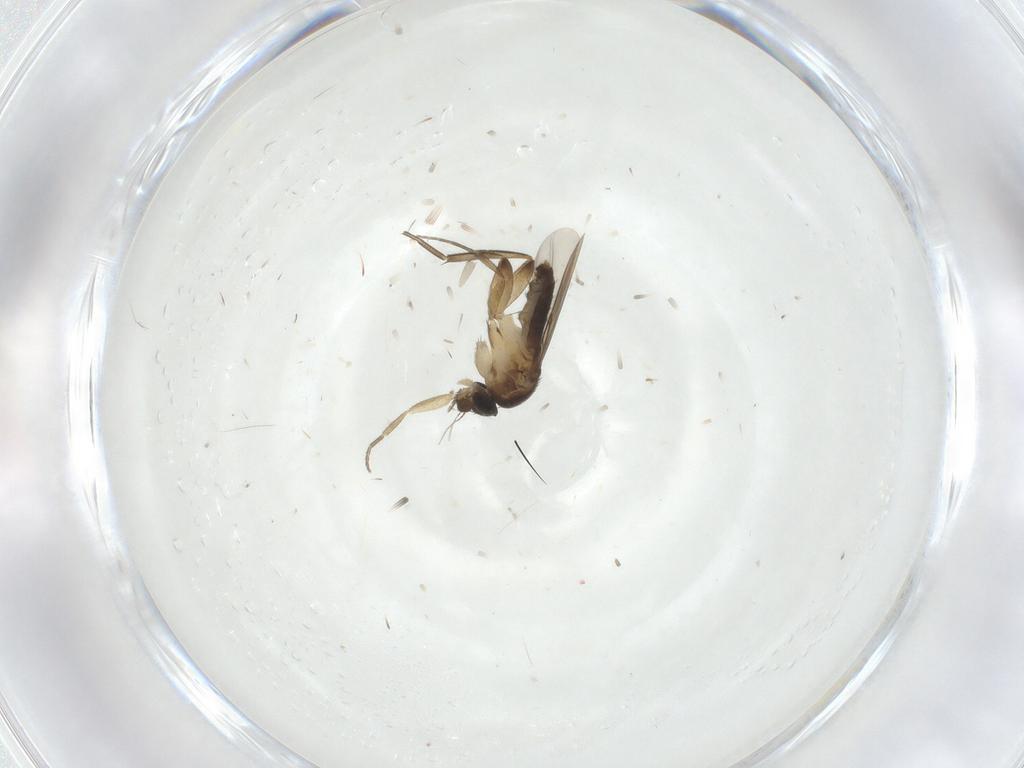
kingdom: Animalia
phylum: Arthropoda
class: Insecta
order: Diptera
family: Phoridae
